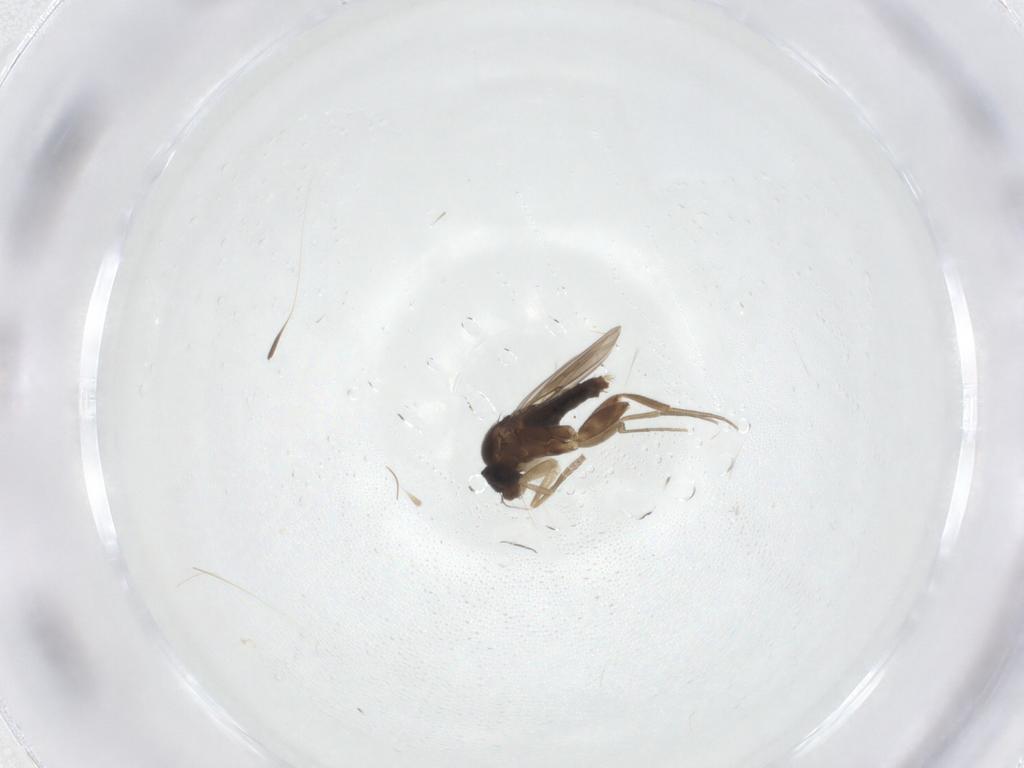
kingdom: Animalia
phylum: Arthropoda
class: Insecta
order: Diptera
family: Phoridae
